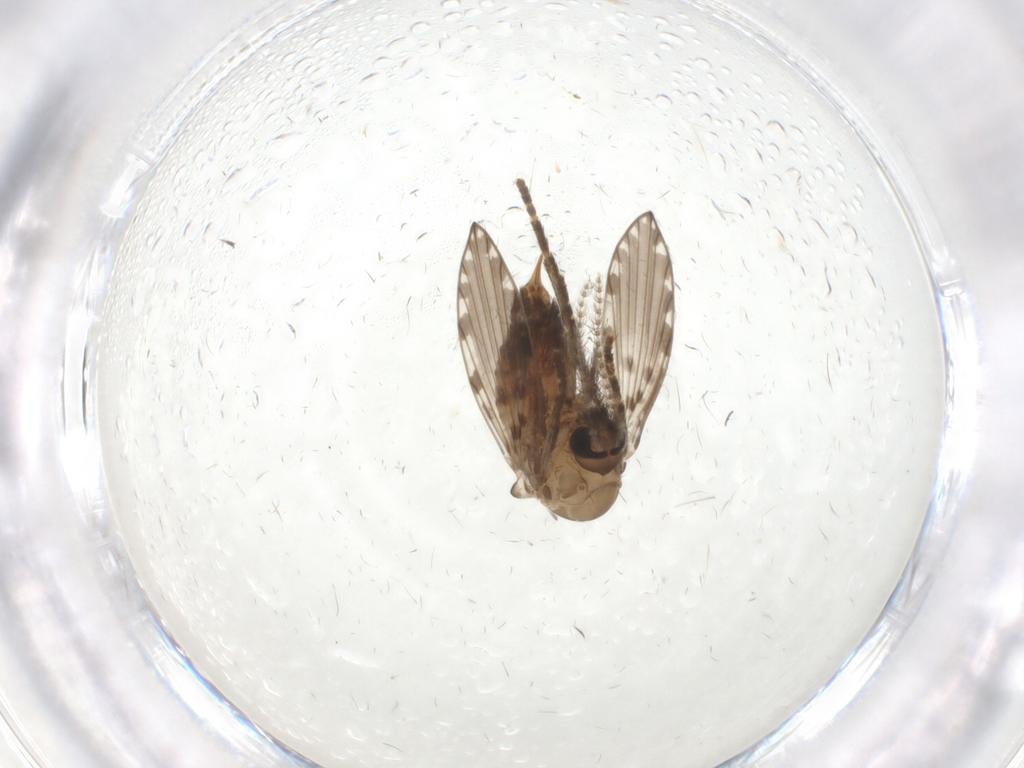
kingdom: Animalia
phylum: Arthropoda
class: Insecta
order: Diptera
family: Psychodidae
